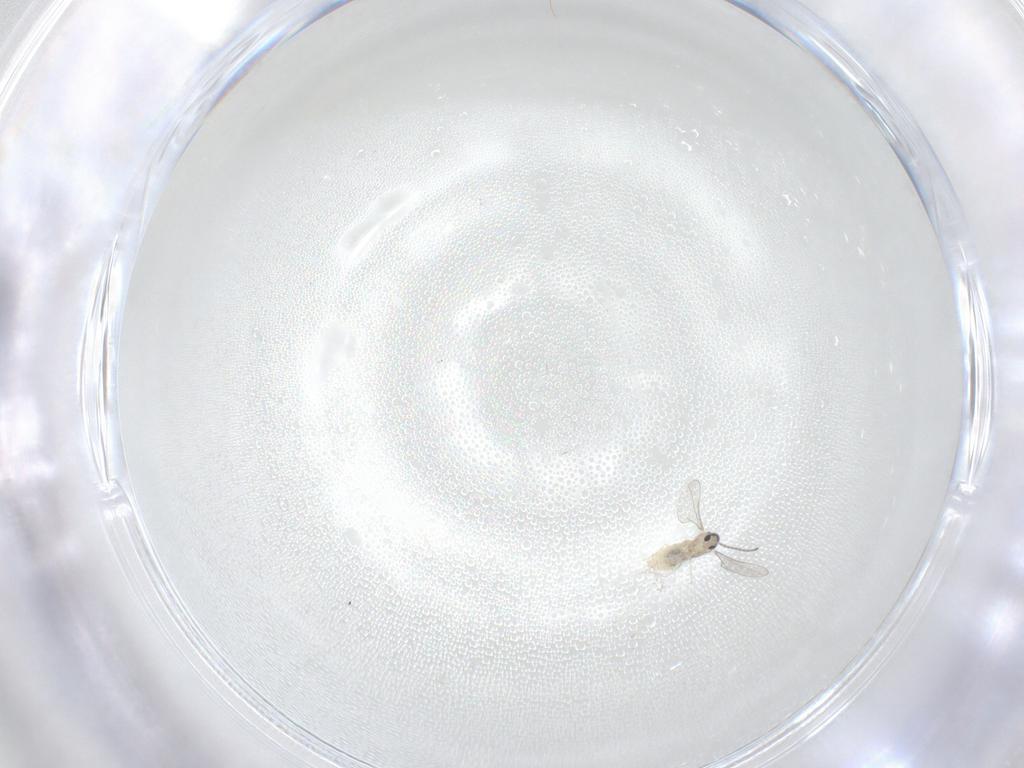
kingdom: Animalia
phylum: Arthropoda
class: Insecta
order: Diptera
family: Cecidomyiidae
